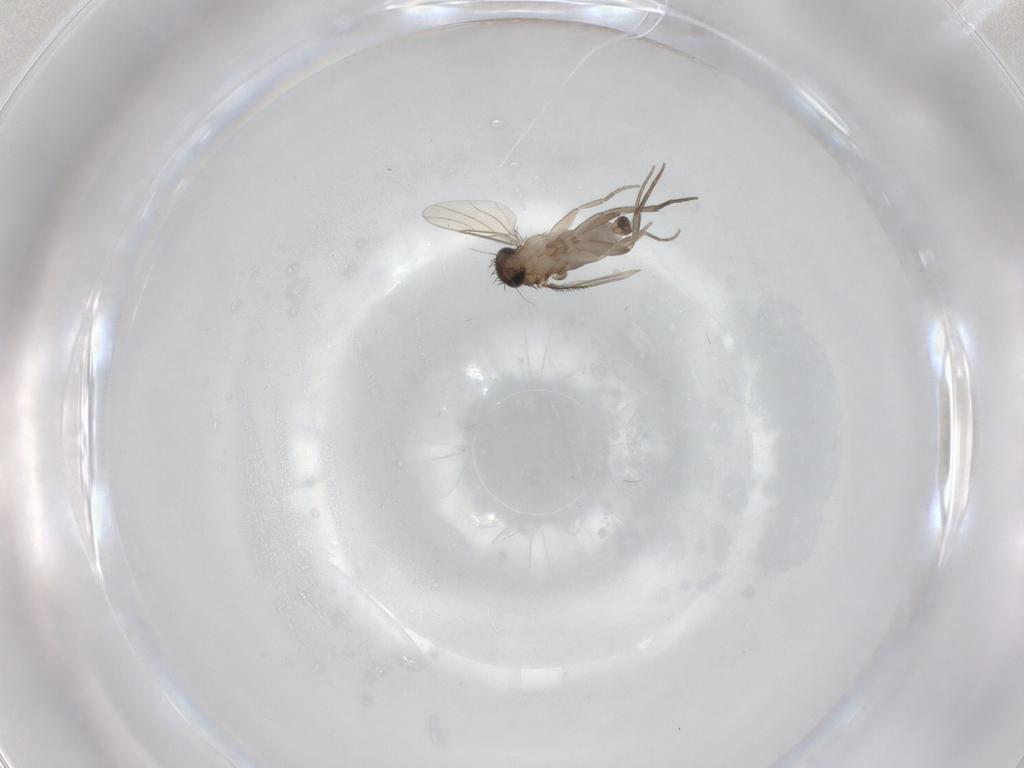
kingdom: Animalia
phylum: Arthropoda
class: Insecta
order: Diptera
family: Phoridae
